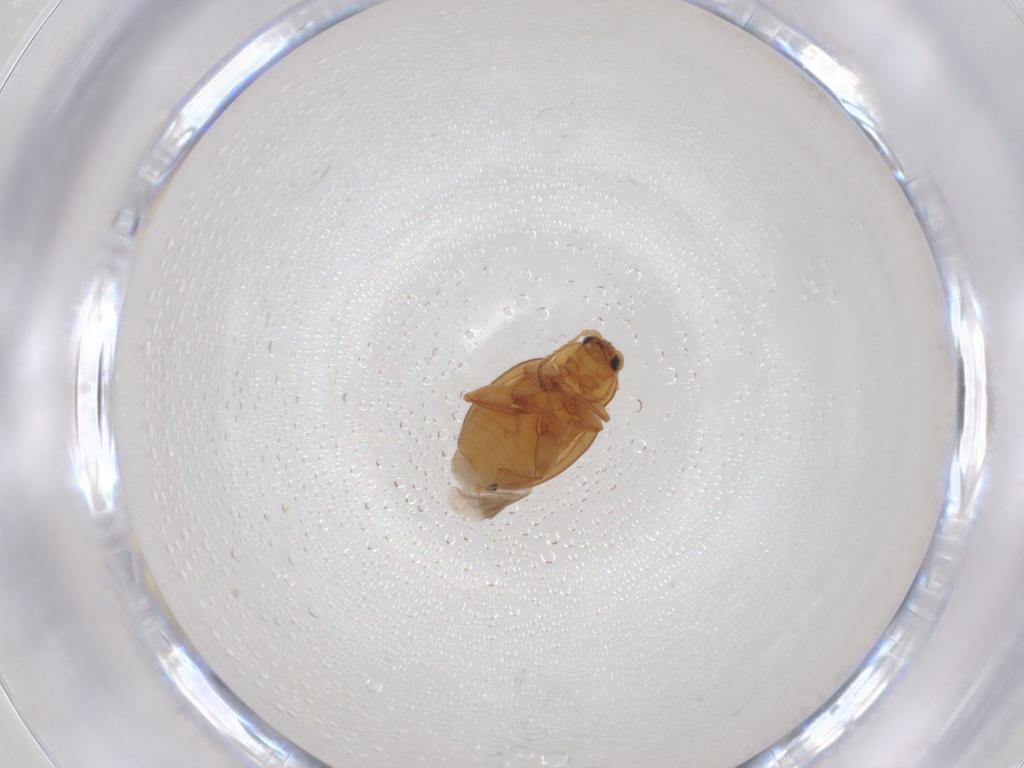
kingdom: Animalia
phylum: Arthropoda
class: Insecta
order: Coleoptera
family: Chrysomelidae
